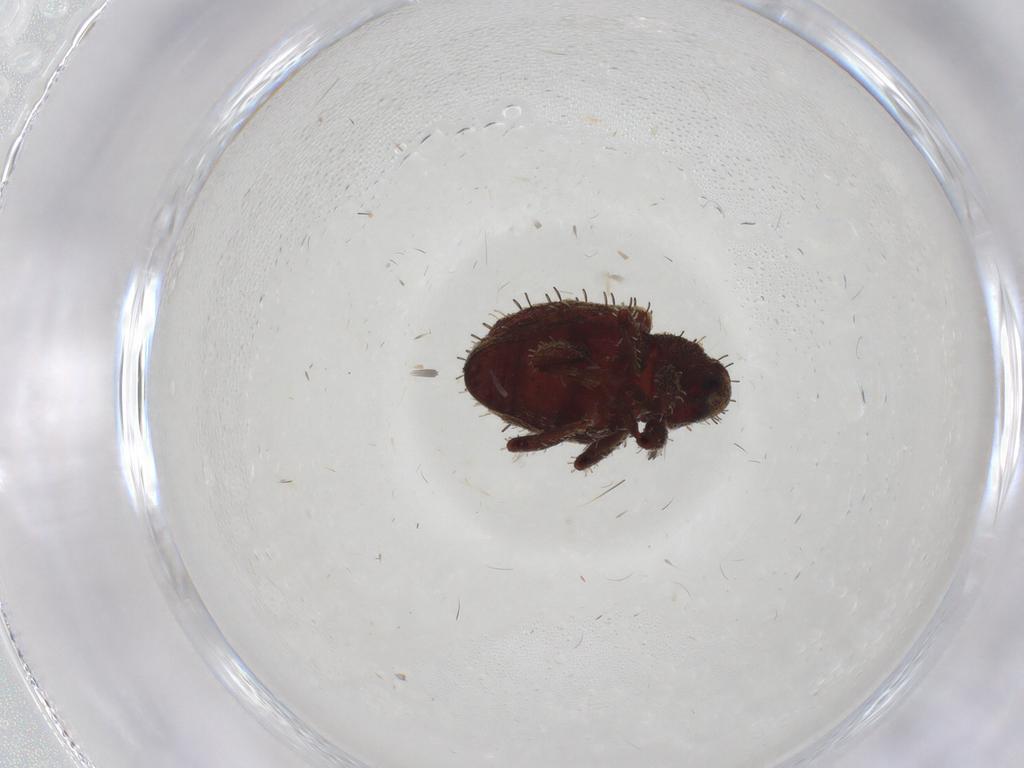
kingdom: Animalia
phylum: Arthropoda
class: Insecta
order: Coleoptera
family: Curculionidae
